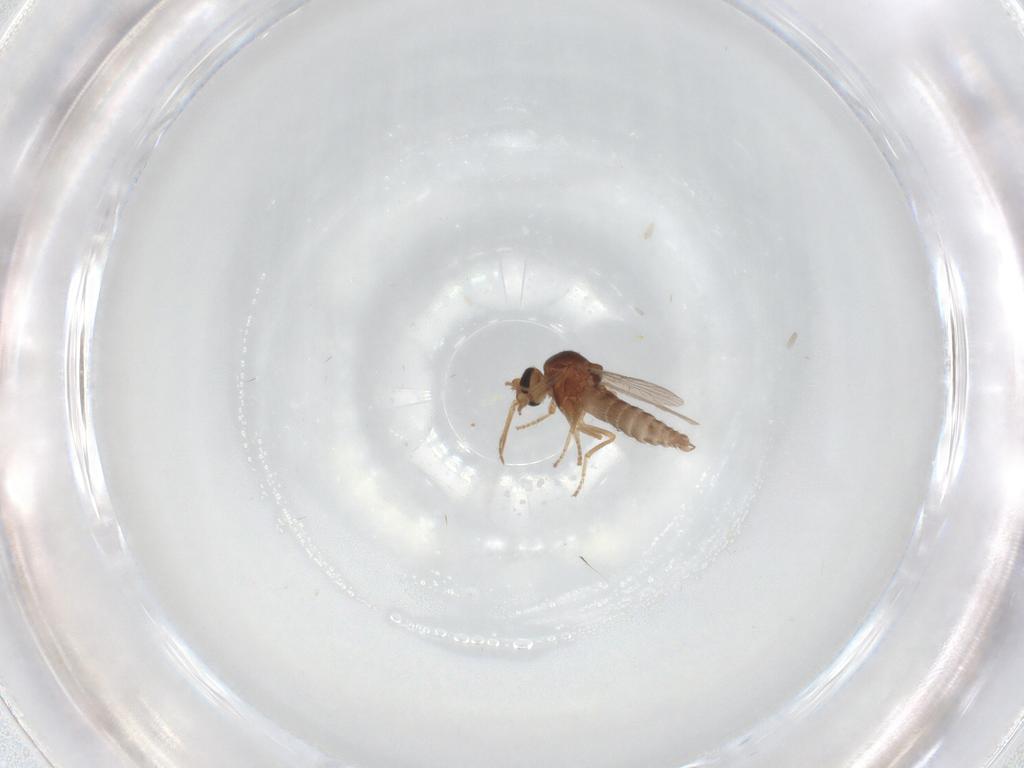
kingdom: Animalia
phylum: Arthropoda
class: Insecta
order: Diptera
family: Ceratopogonidae
